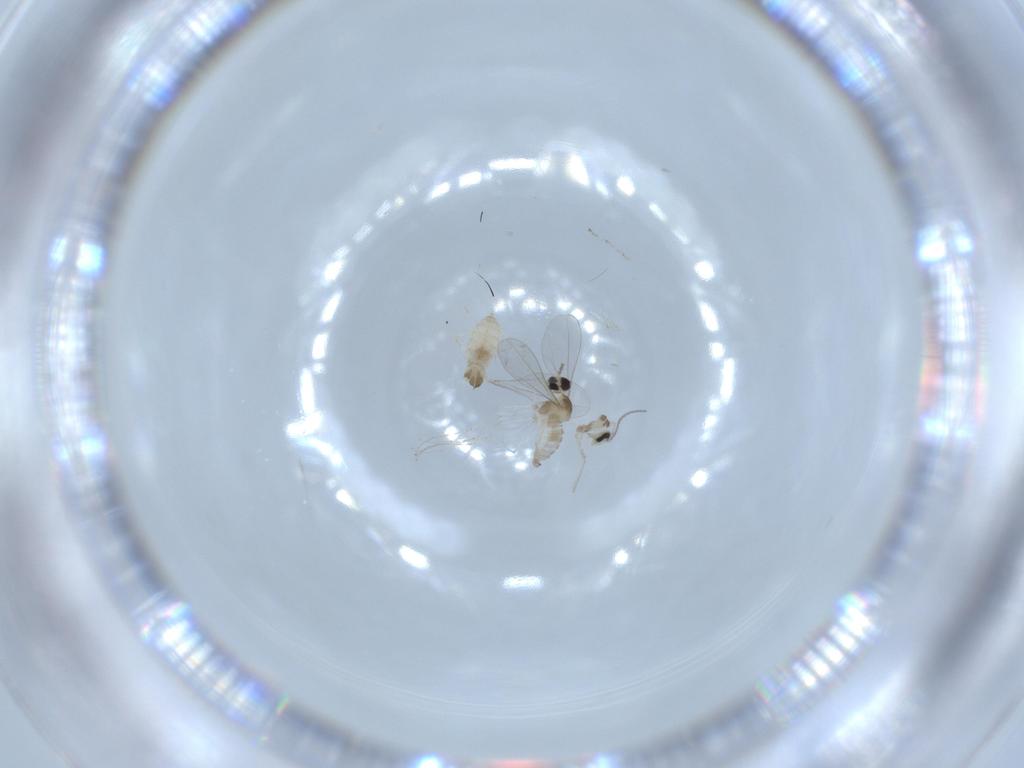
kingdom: Animalia
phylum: Arthropoda
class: Insecta
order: Diptera
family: Cecidomyiidae
